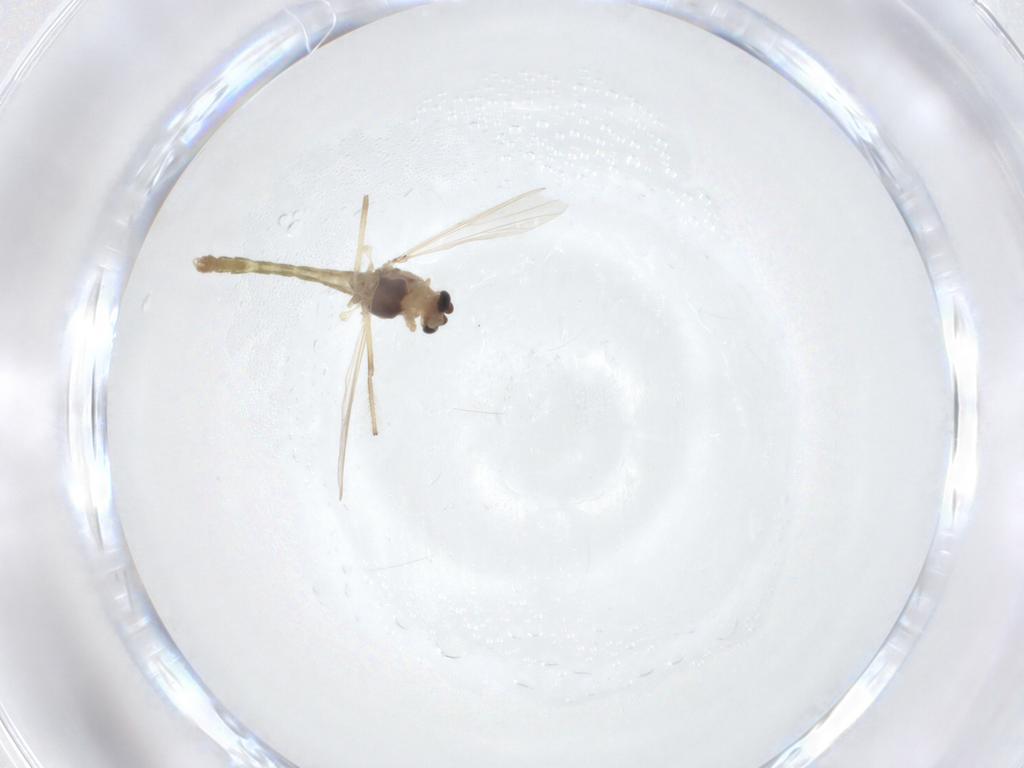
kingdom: Animalia
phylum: Arthropoda
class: Insecta
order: Diptera
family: Chironomidae
